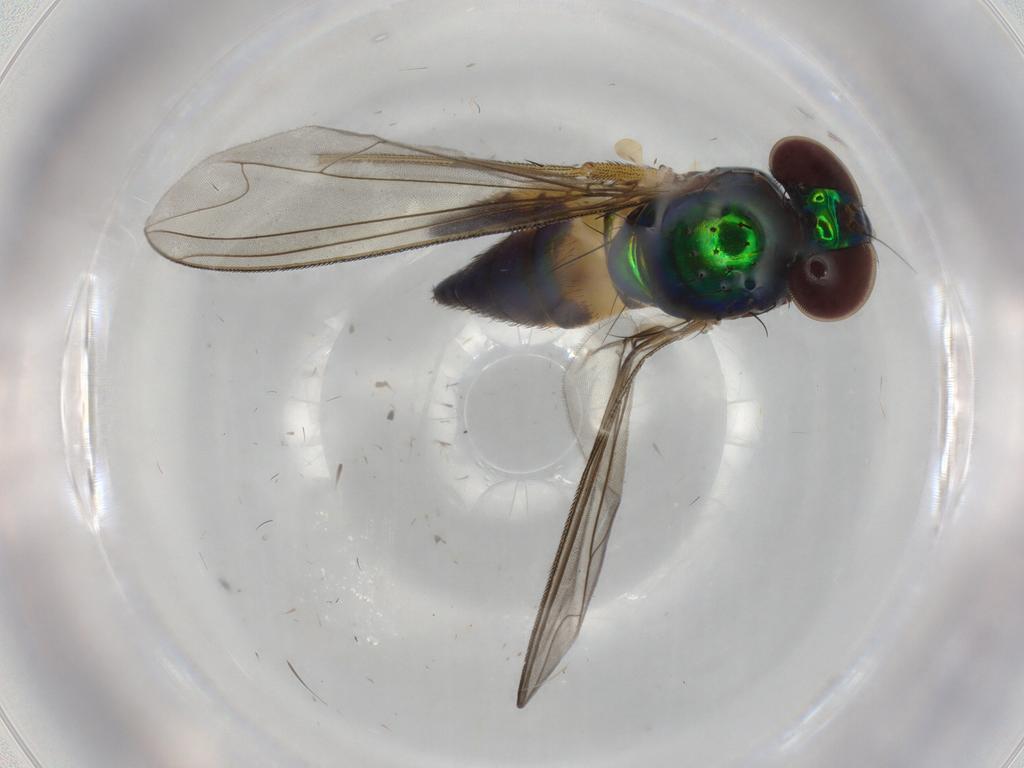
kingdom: Animalia
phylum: Arthropoda
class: Insecta
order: Diptera
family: Dolichopodidae
